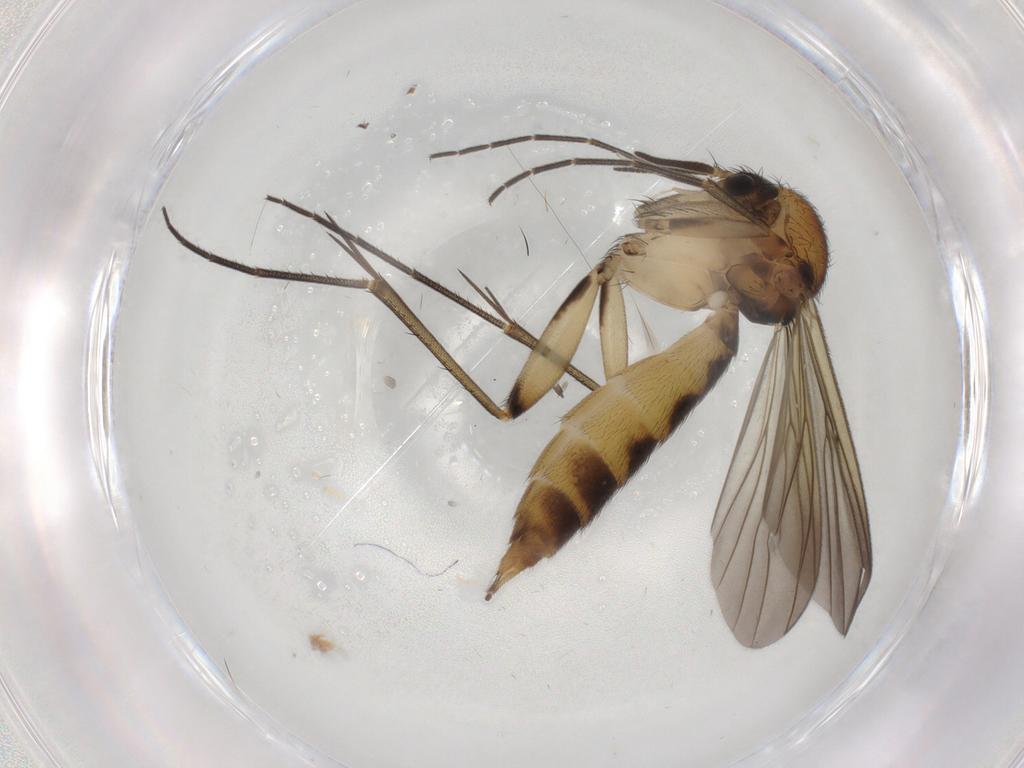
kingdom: Animalia
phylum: Arthropoda
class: Insecta
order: Diptera
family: Mycetophilidae
